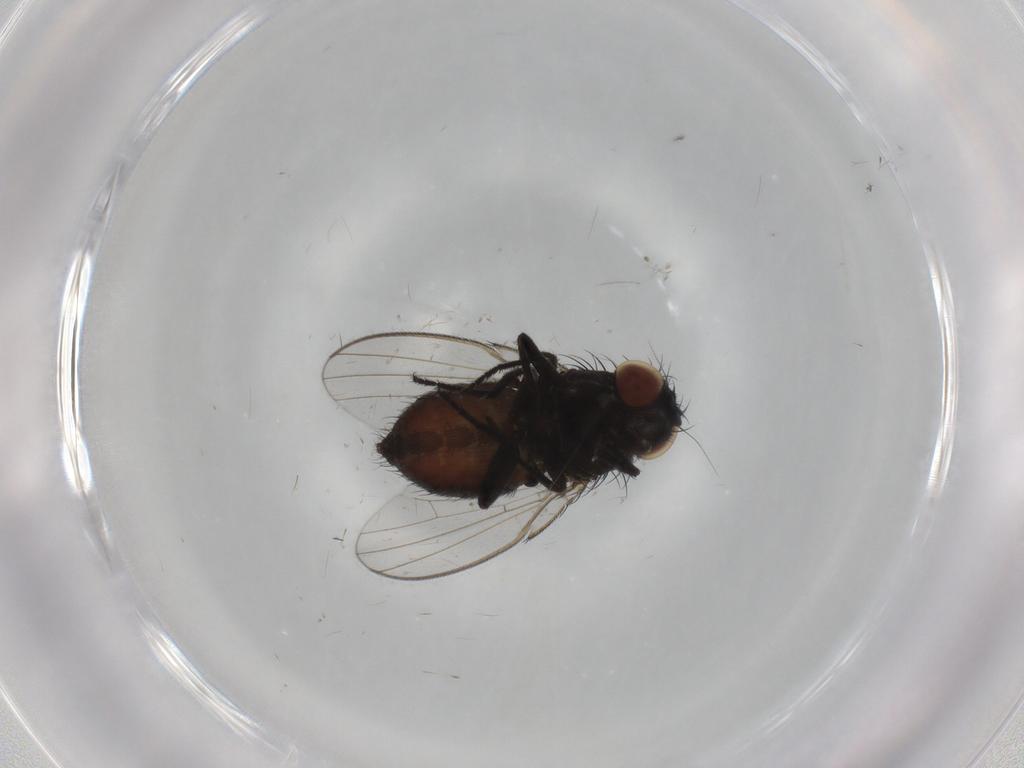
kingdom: Animalia
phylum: Arthropoda
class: Insecta
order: Diptera
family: Milichiidae
